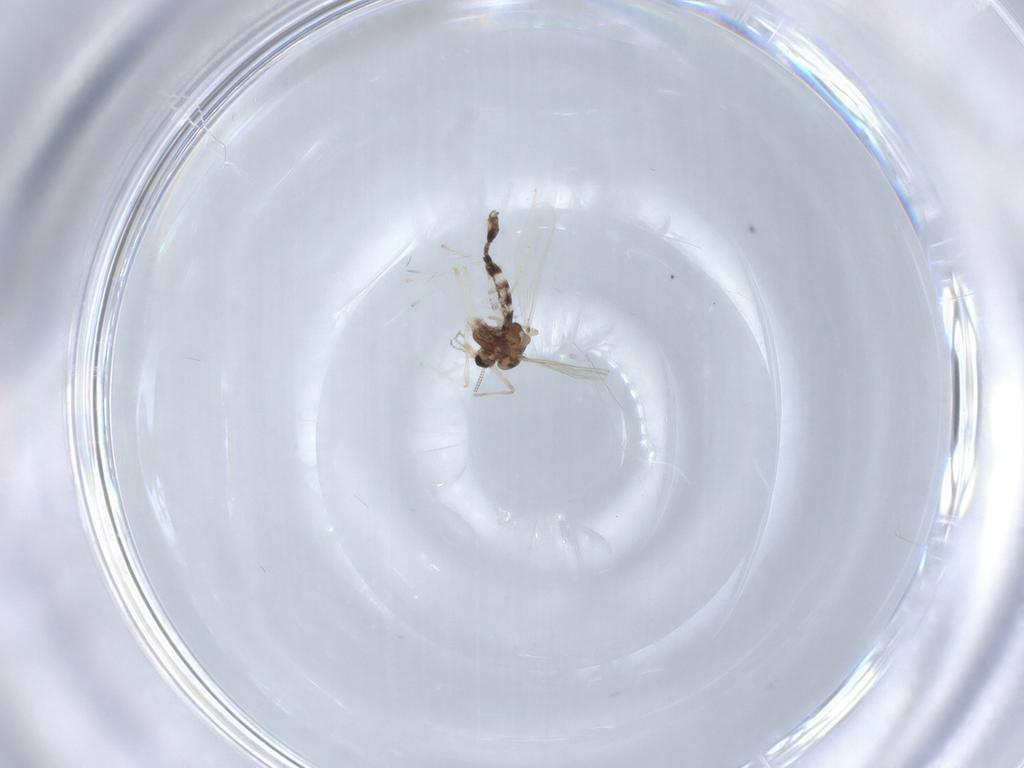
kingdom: Animalia
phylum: Arthropoda
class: Insecta
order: Diptera
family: Chironomidae
